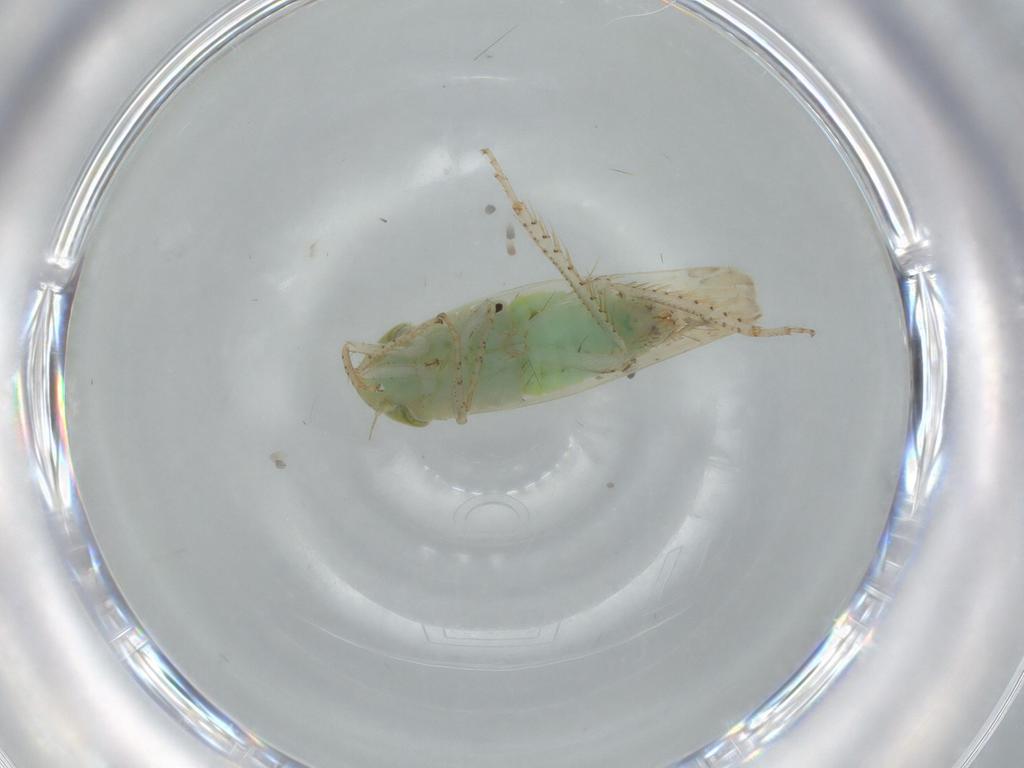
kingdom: Animalia
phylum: Arthropoda
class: Insecta
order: Hemiptera
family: Cicadellidae
